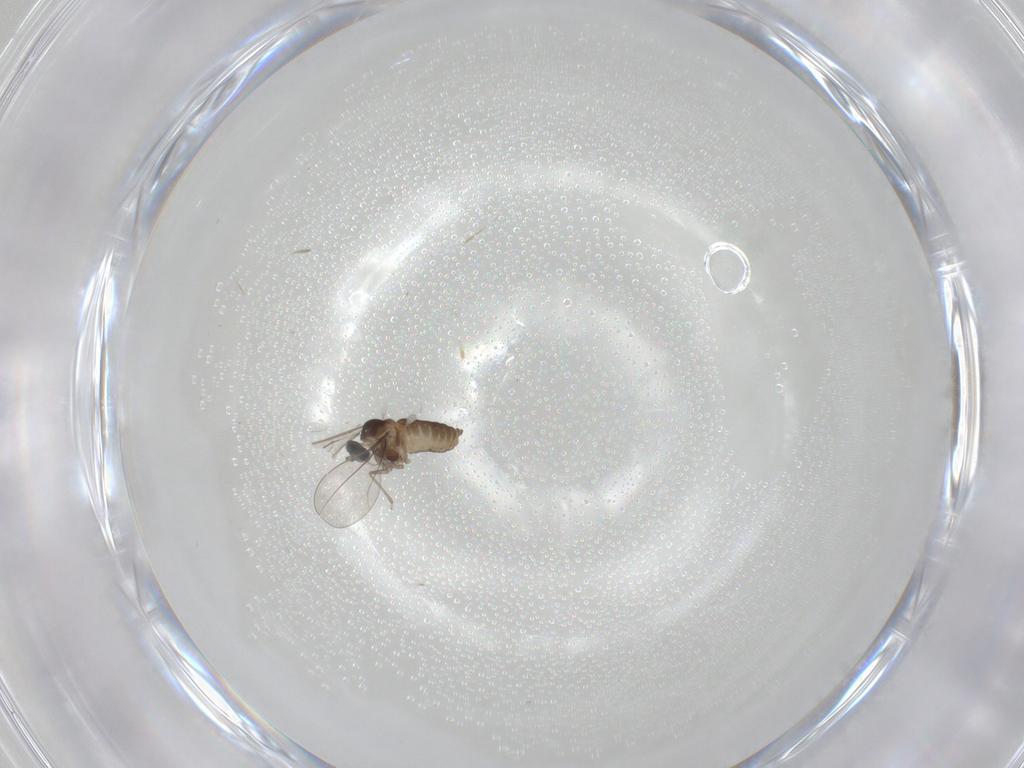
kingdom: Animalia
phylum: Arthropoda
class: Insecta
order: Diptera
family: Cecidomyiidae
